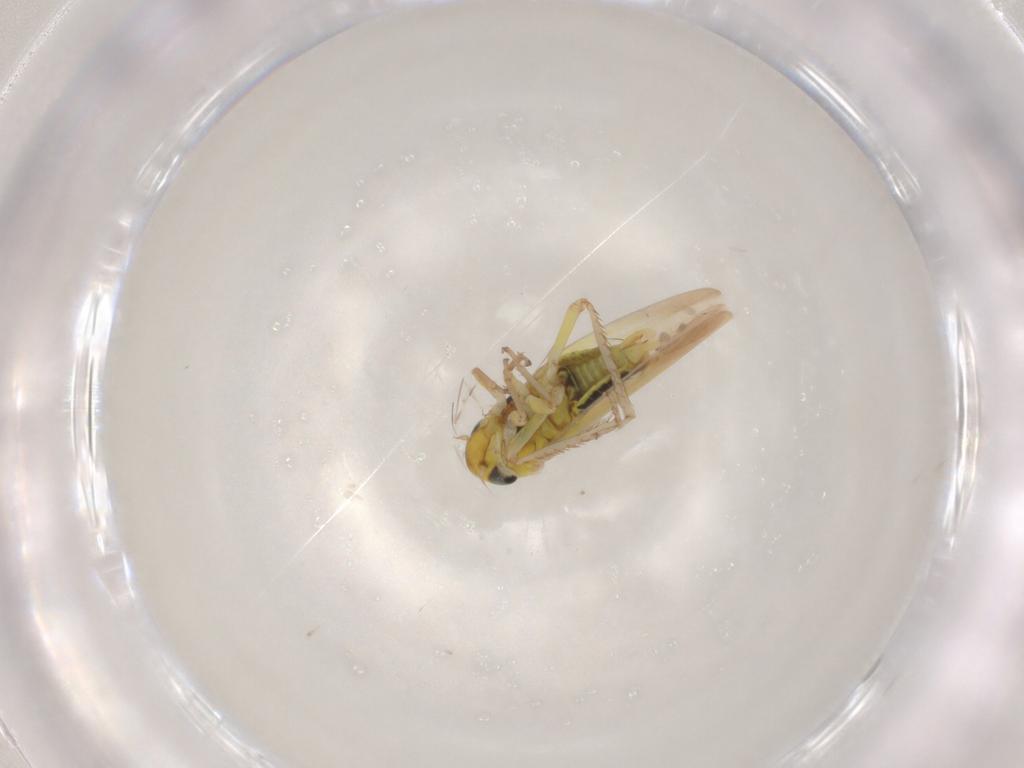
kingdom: Animalia
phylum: Arthropoda
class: Insecta
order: Hemiptera
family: Cicadellidae
